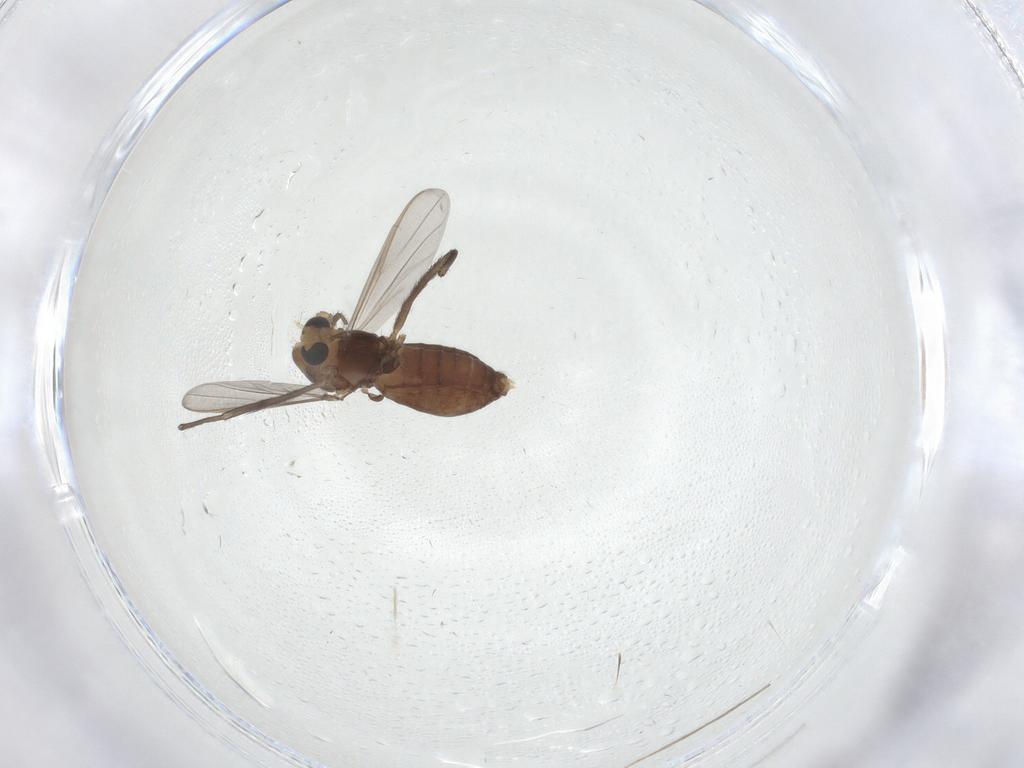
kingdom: Animalia
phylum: Arthropoda
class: Insecta
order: Diptera
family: Chironomidae
